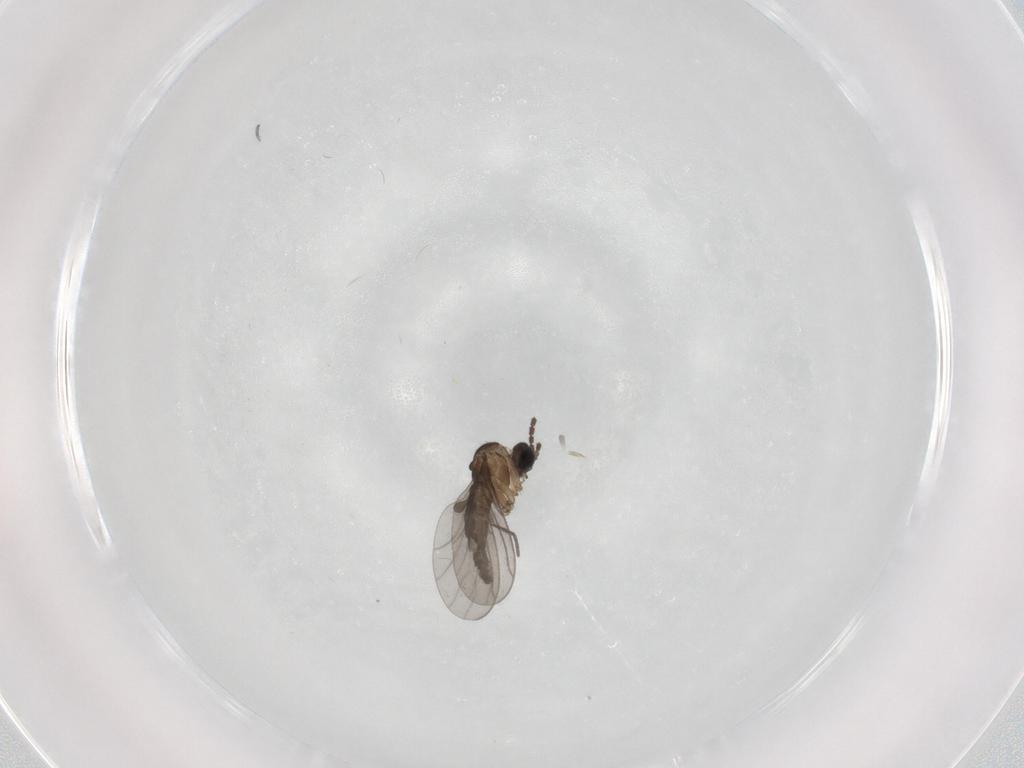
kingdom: Animalia
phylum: Arthropoda
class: Insecta
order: Diptera
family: Sciaridae
